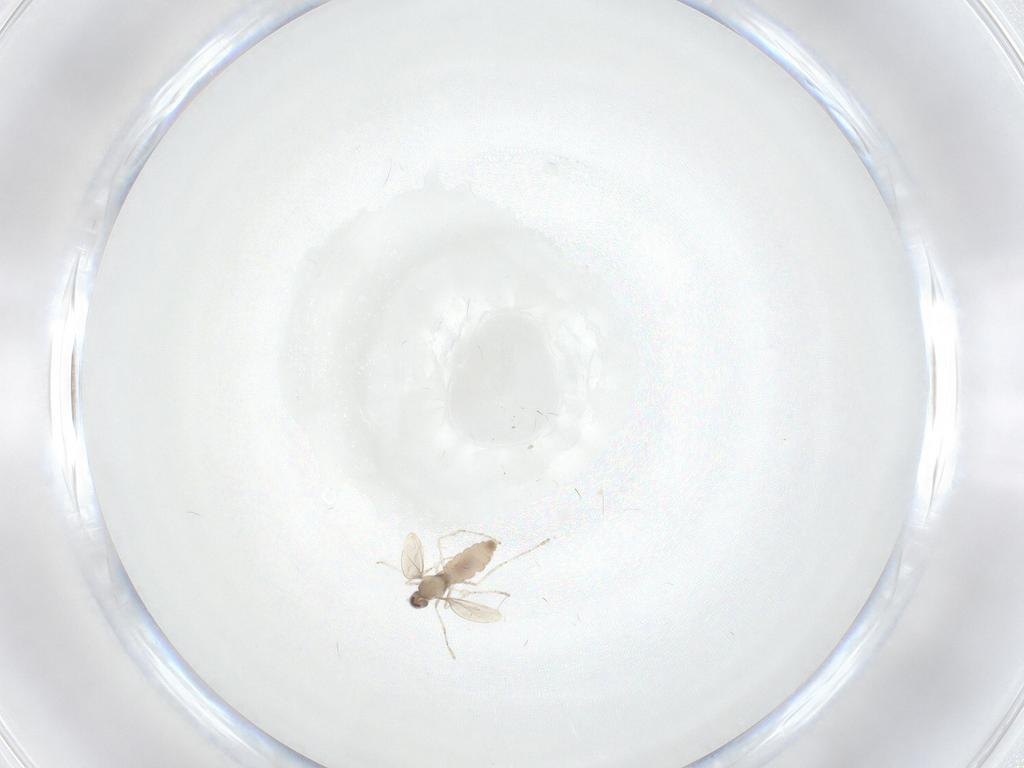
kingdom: Animalia
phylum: Arthropoda
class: Insecta
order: Diptera
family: Cecidomyiidae
